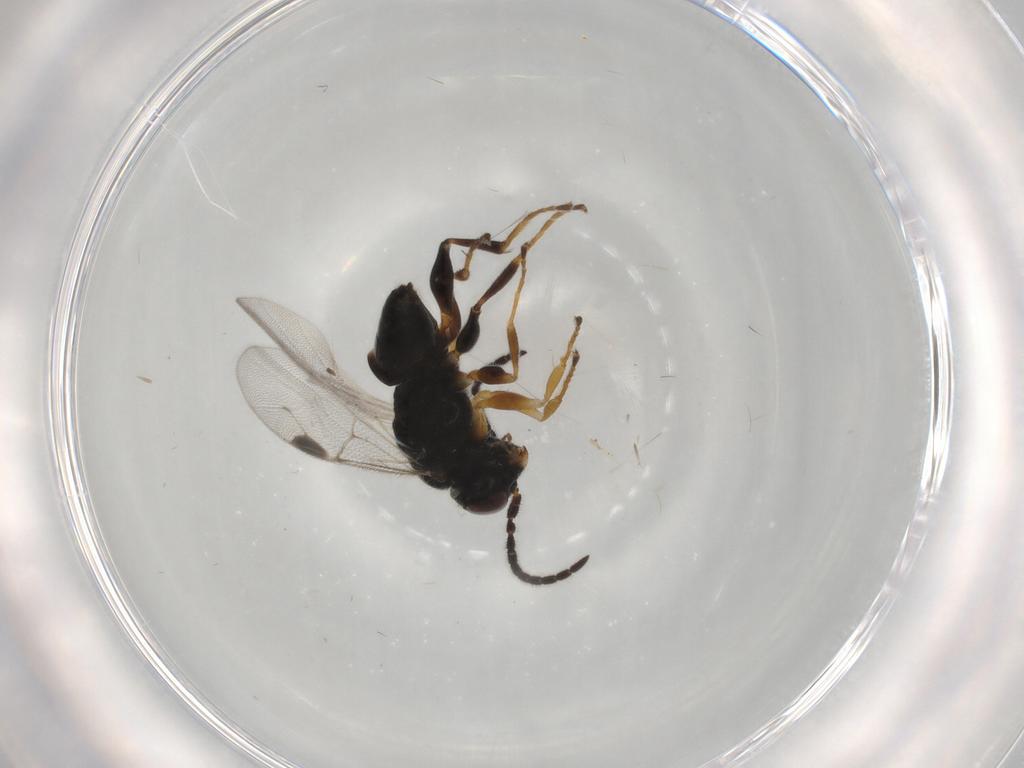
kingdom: Animalia
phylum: Arthropoda
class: Insecta
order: Hymenoptera
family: Dryinidae
